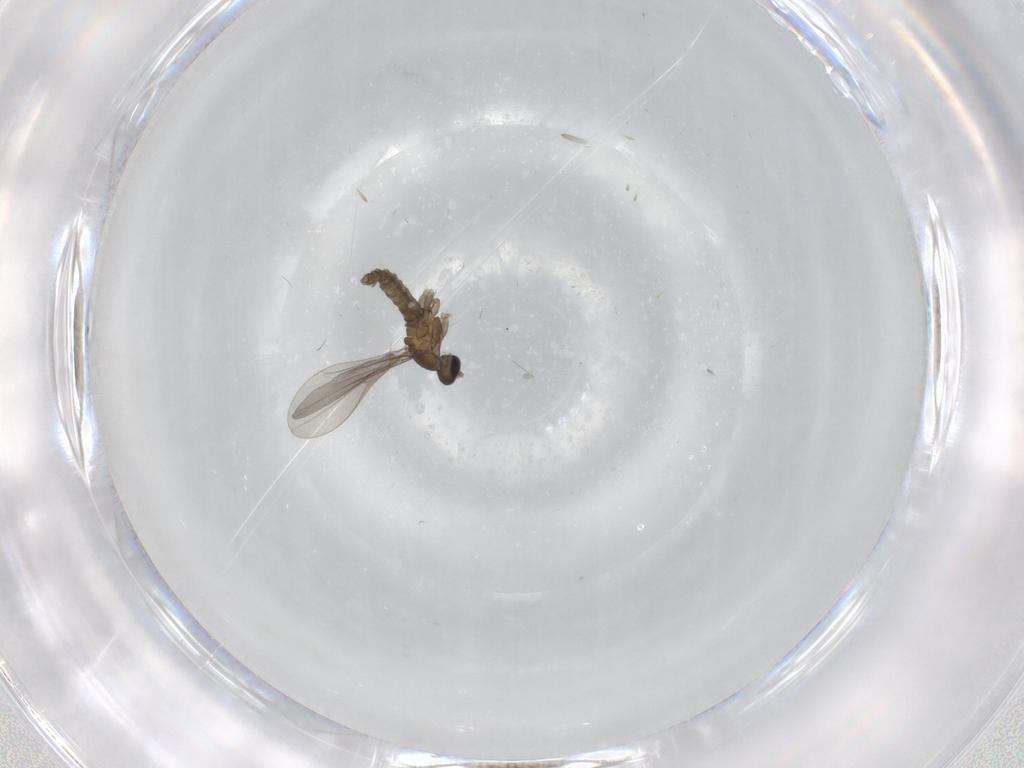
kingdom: Animalia
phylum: Arthropoda
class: Insecta
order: Diptera
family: Cecidomyiidae
